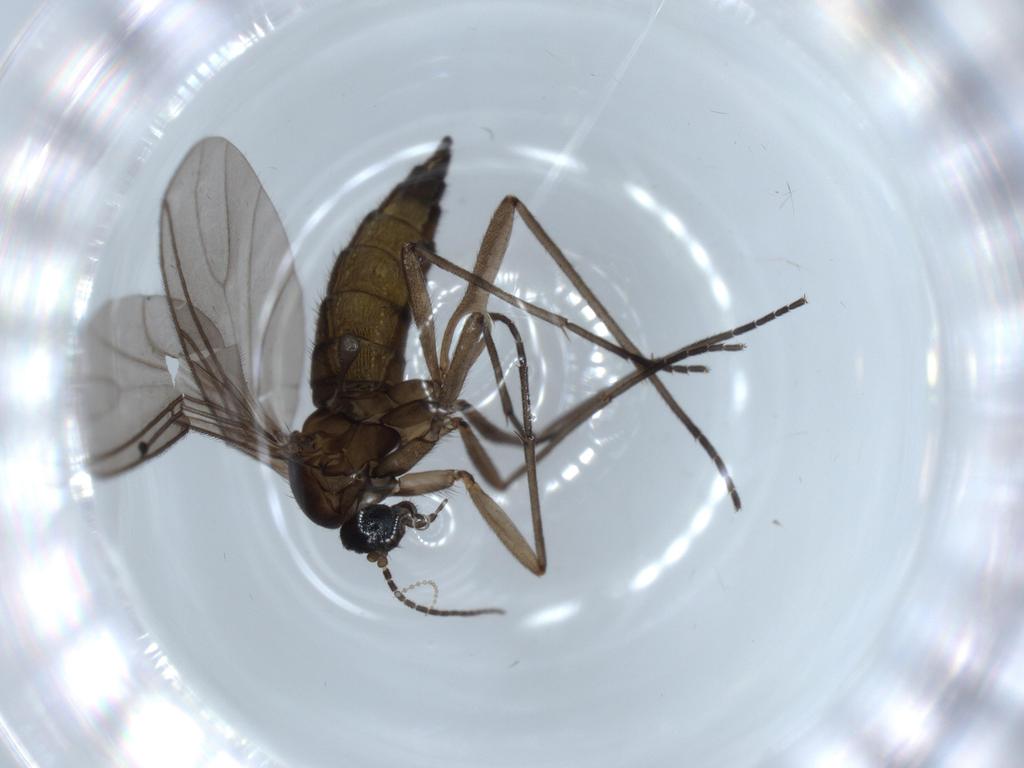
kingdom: Animalia
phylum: Arthropoda
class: Insecta
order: Diptera
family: Sciaridae
